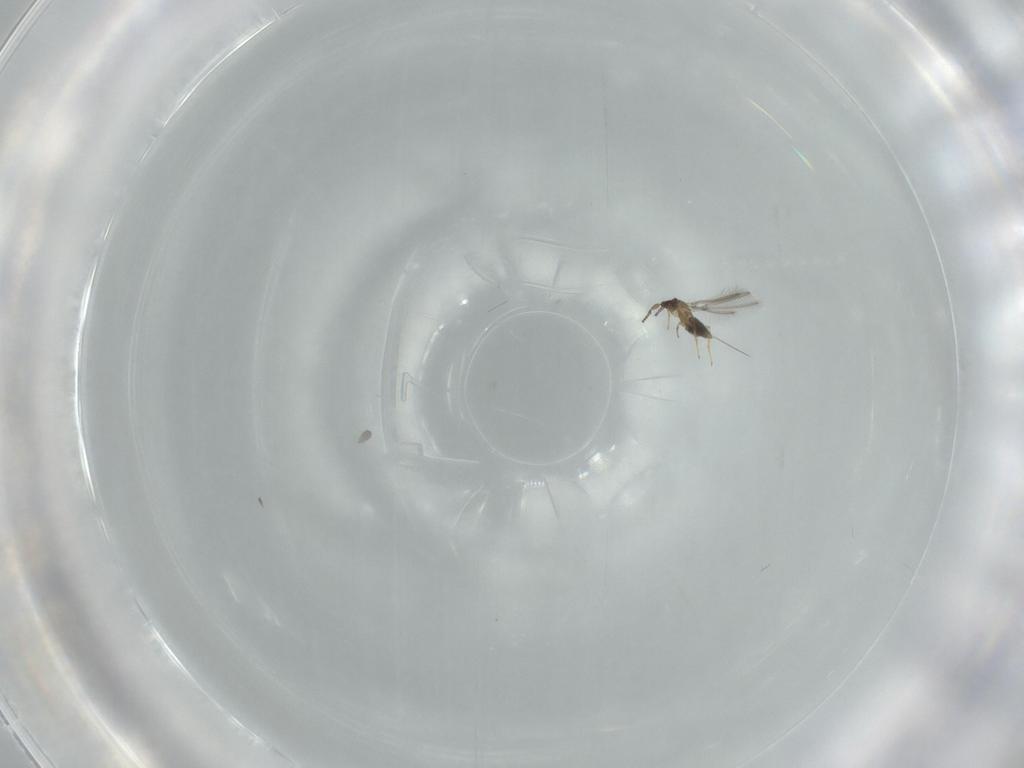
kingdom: Animalia
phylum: Arthropoda
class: Insecta
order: Hymenoptera
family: Mymaridae
